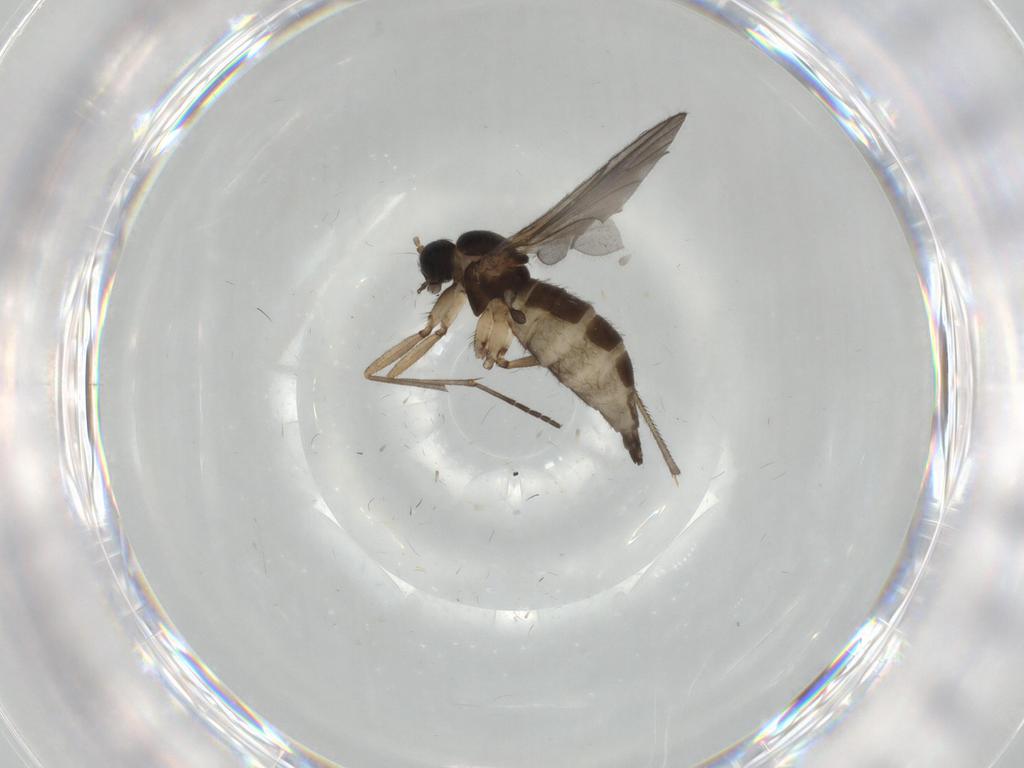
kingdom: Animalia
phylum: Arthropoda
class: Insecta
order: Diptera
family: Sciaridae
